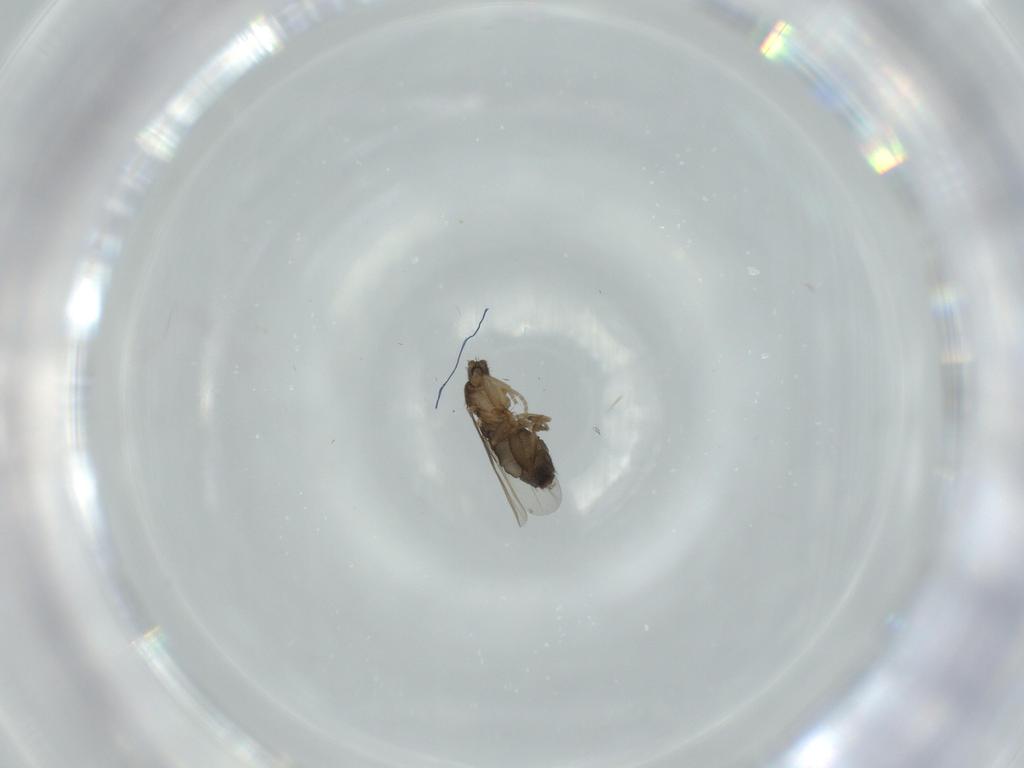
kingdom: Animalia
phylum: Arthropoda
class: Insecta
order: Diptera
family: Phoridae
